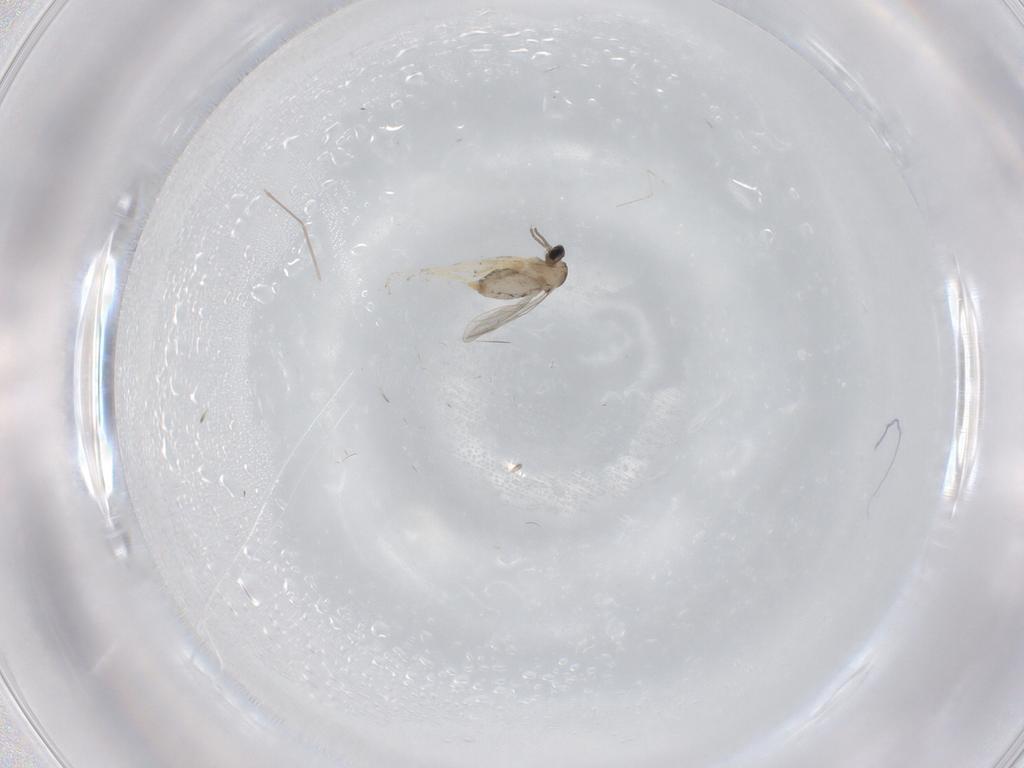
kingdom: Animalia
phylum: Arthropoda
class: Insecta
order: Diptera
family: Cecidomyiidae
